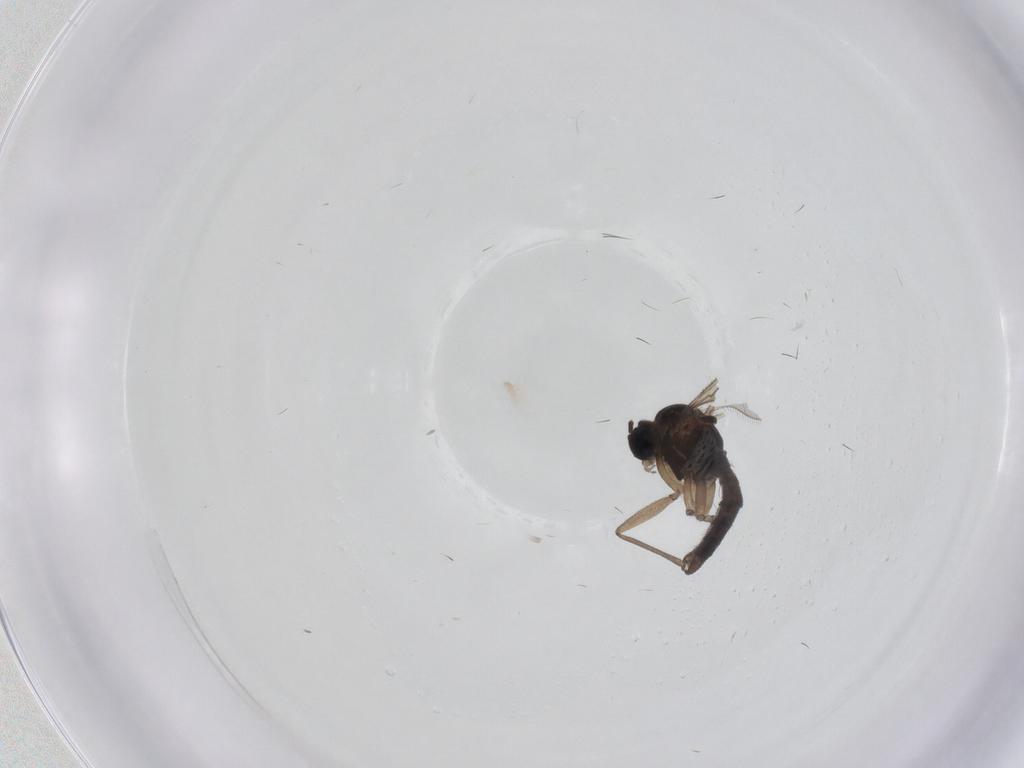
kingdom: Animalia
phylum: Arthropoda
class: Insecta
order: Diptera
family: Sciaridae
